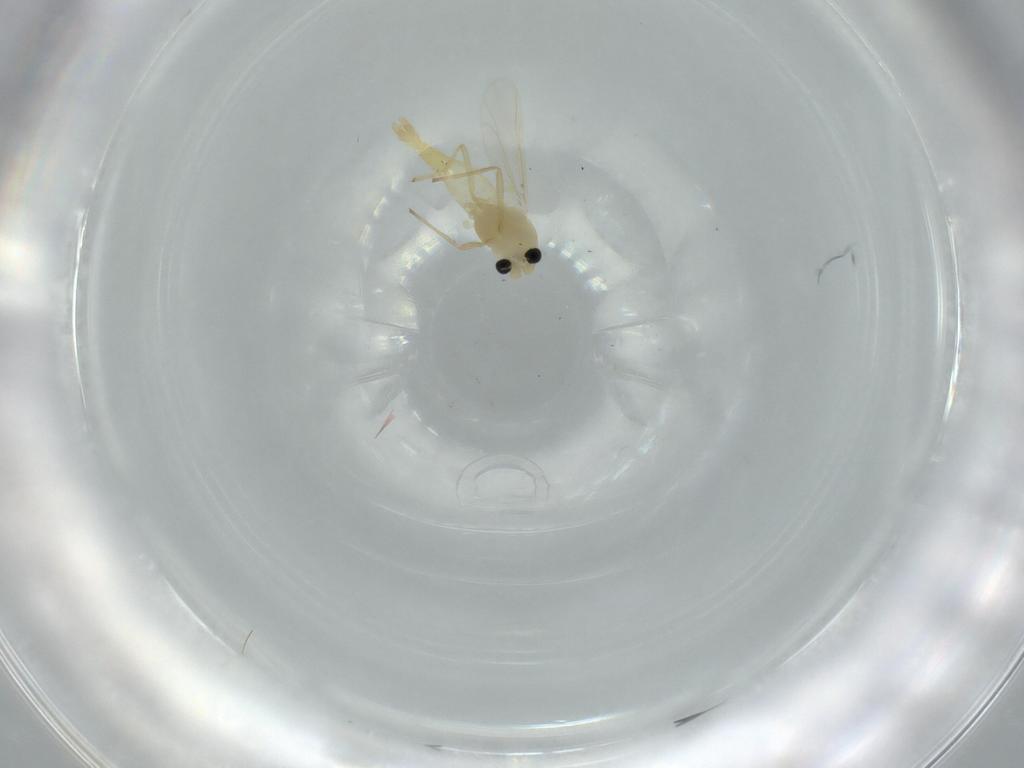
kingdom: Animalia
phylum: Arthropoda
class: Insecta
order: Diptera
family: Chironomidae
